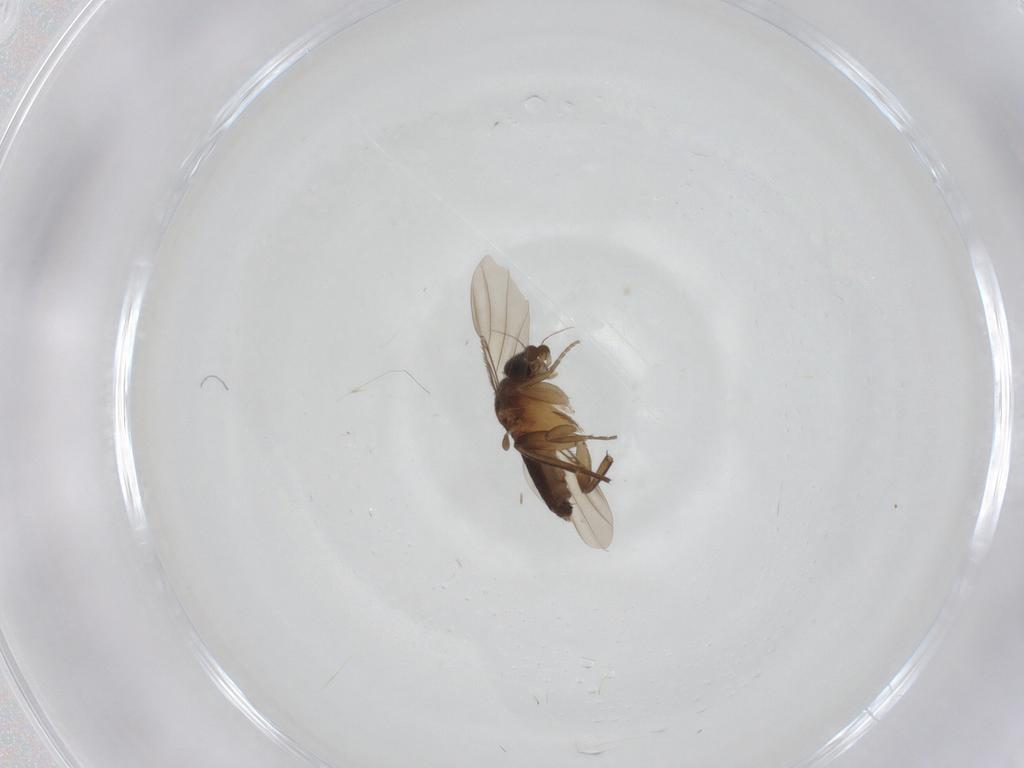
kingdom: Animalia
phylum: Arthropoda
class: Insecta
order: Diptera
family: Phoridae
